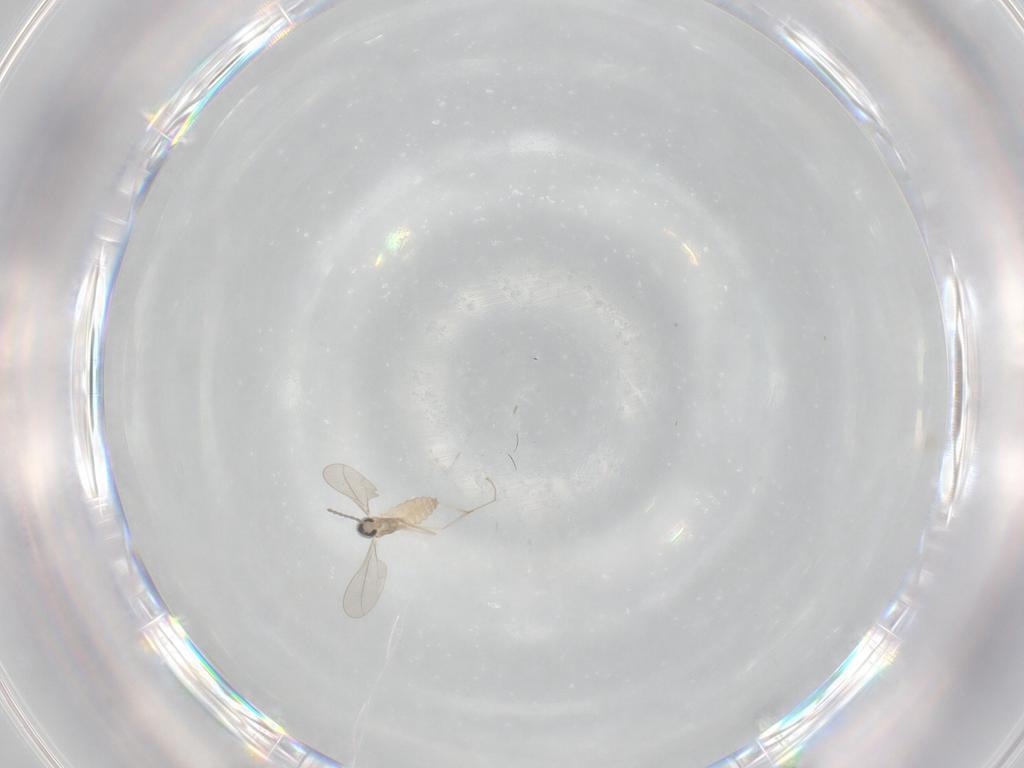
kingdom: Animalia
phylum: Arthropoda
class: Insecta
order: Diptera
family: Cecidomyiidae
